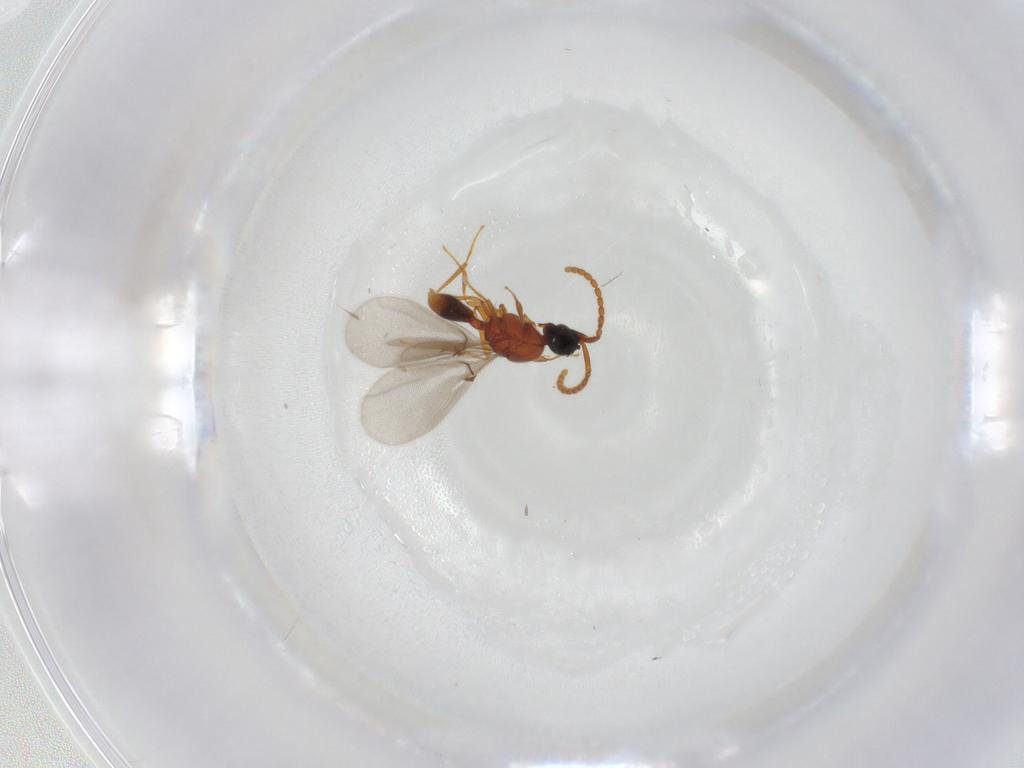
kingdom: Animalia
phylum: Arthropoda
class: Insecta
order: Hymenoptera
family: Diapriidae
